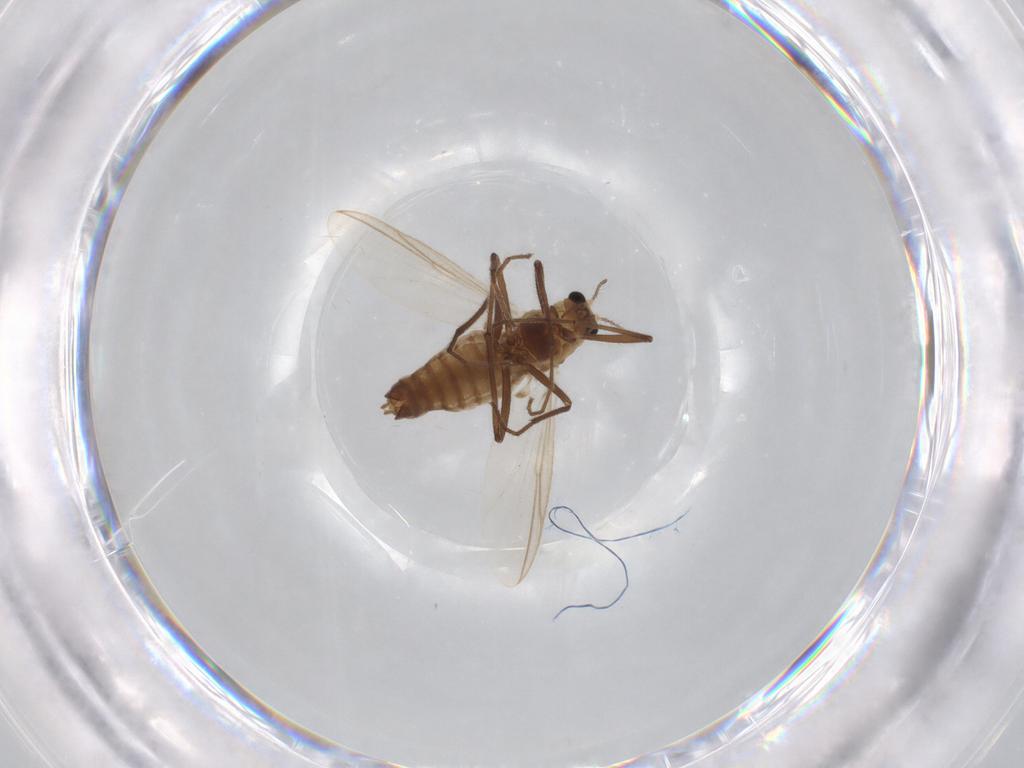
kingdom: Animalia
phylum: Arthropoda
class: Insecta
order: Diptera
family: Chironomidae
